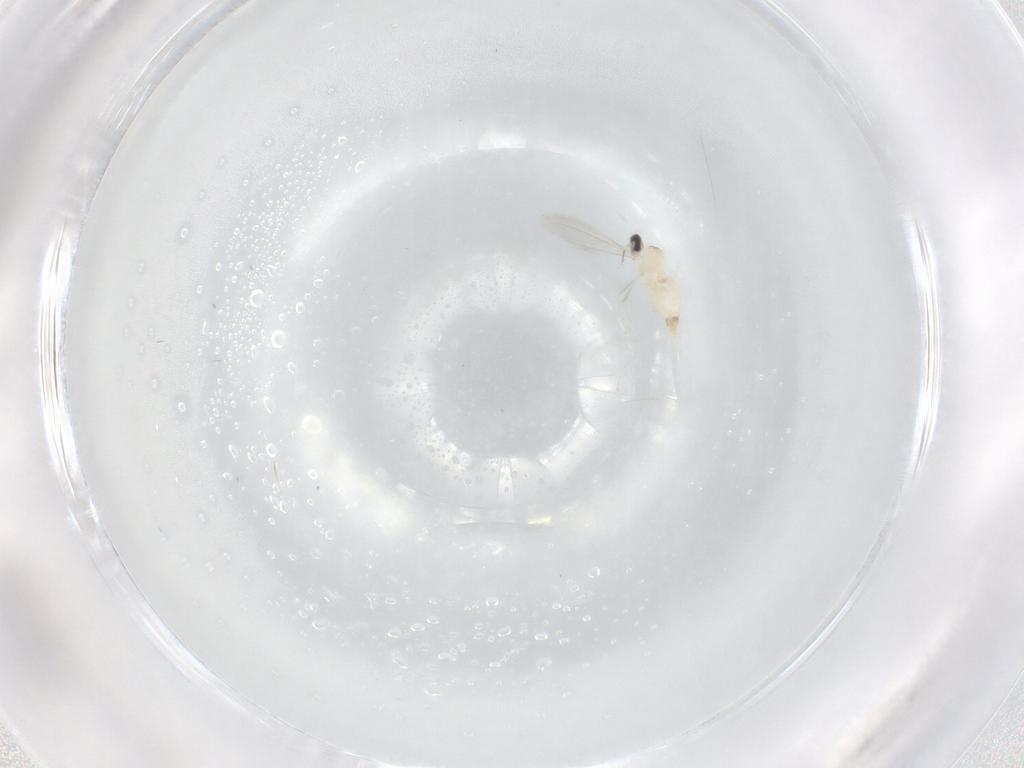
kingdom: Animalia
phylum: Arthropoda
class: Insecta
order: Diptera
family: Cecidomyiidae
